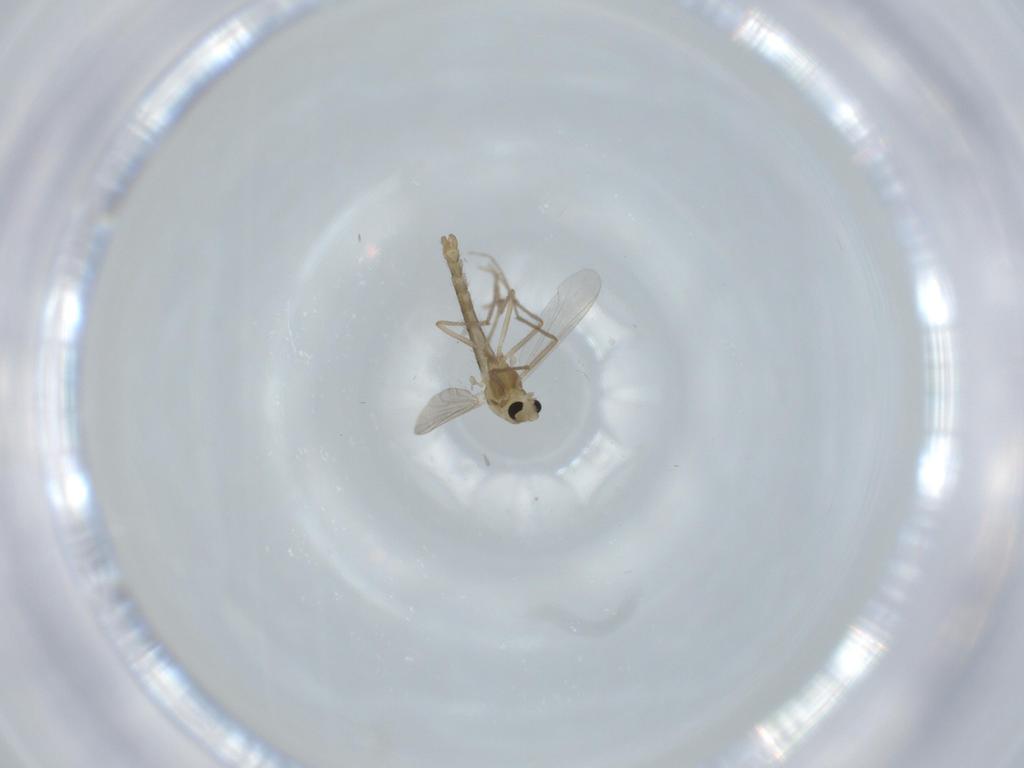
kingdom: Animalia
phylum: Arthropoda
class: Insecta
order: Diptera
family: Chironomidae
